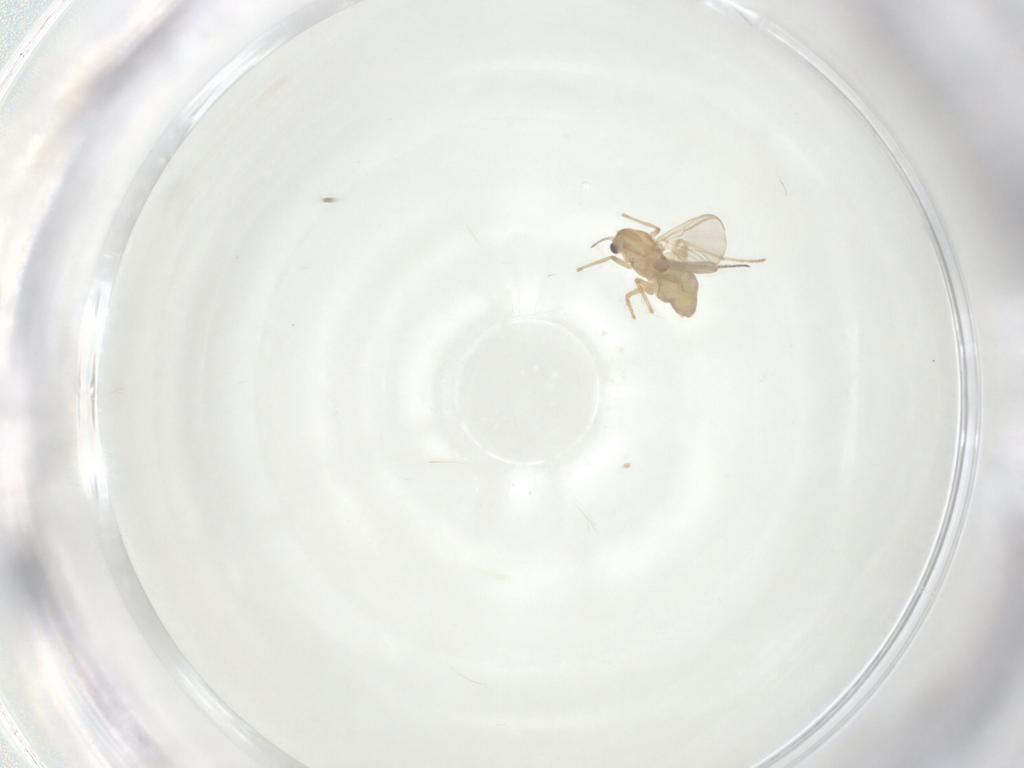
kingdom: Animalia
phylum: Arthropoda
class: Insecta
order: Diptera
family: Chironomidae
